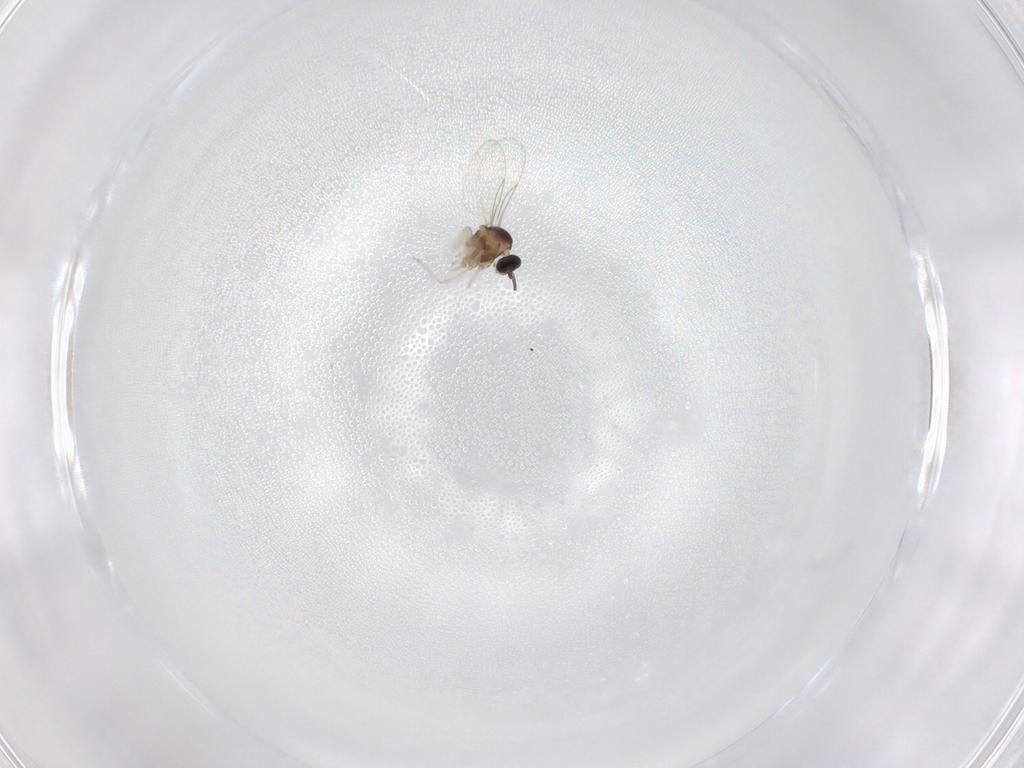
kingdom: Animalia
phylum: Arthropoda
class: Insecta
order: Diptera
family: Cecidomyiidae
